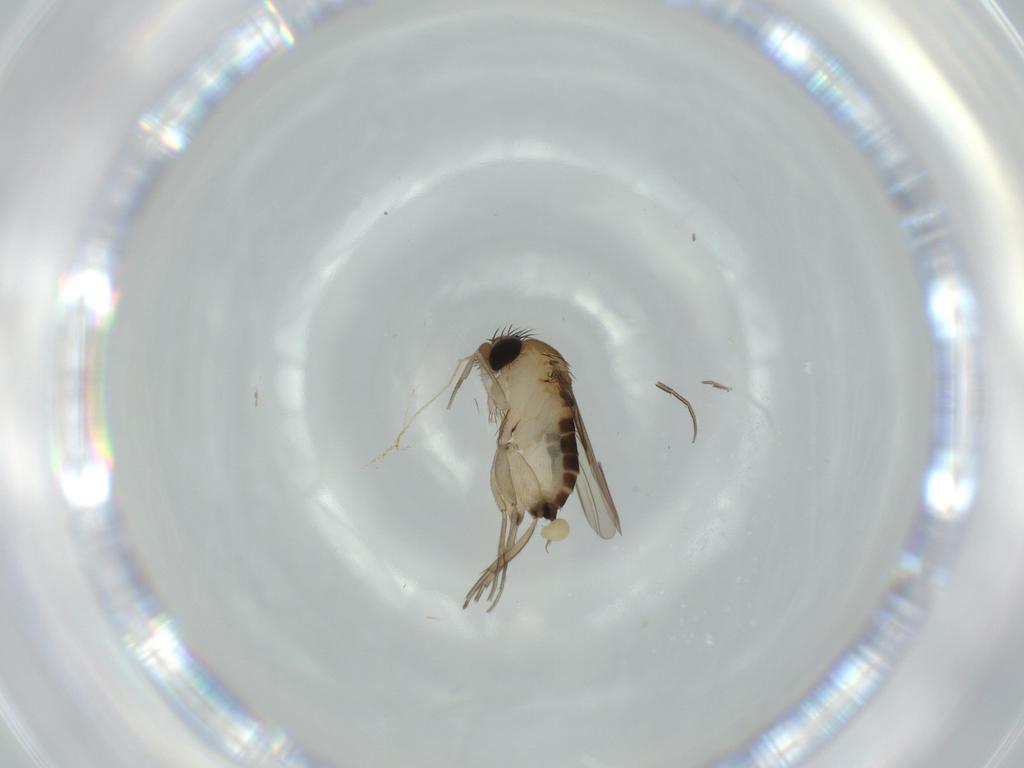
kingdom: Animalia
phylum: Arthropoda
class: Insecta
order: Diptera
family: Phoridae
